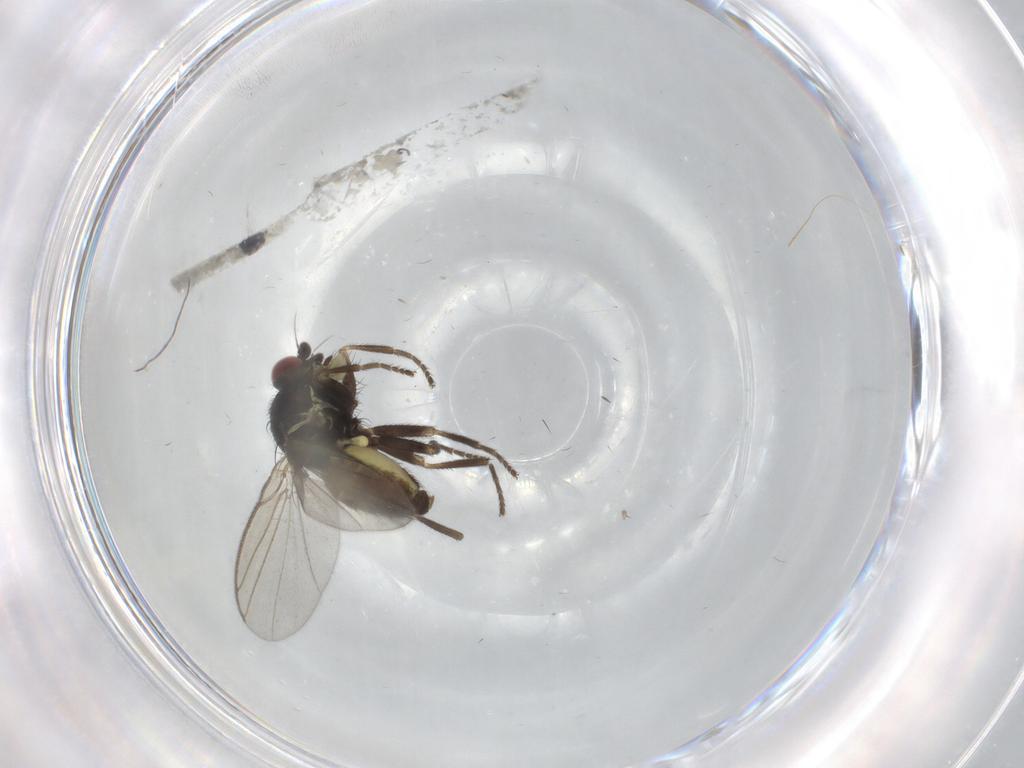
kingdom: Animalia
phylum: Arthropoda
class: Insecta
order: Diptera
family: Agromyzidae
